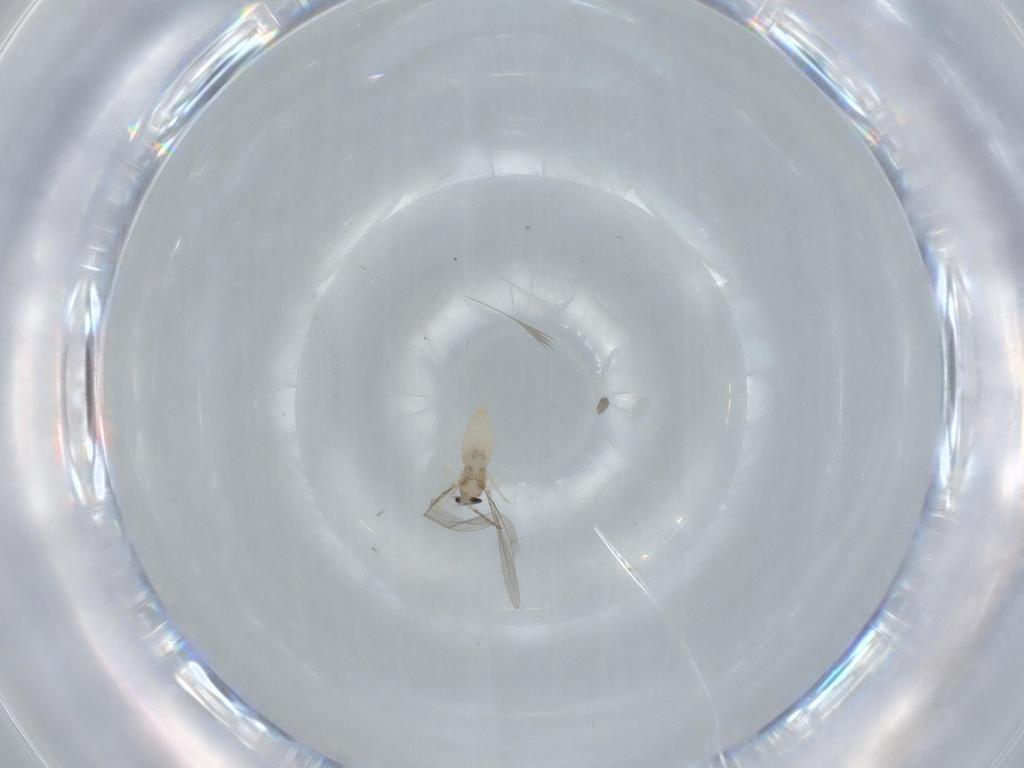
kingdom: Animalia
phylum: Arthropoda
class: Insecta
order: Diptera
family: Cecidomyiidae
